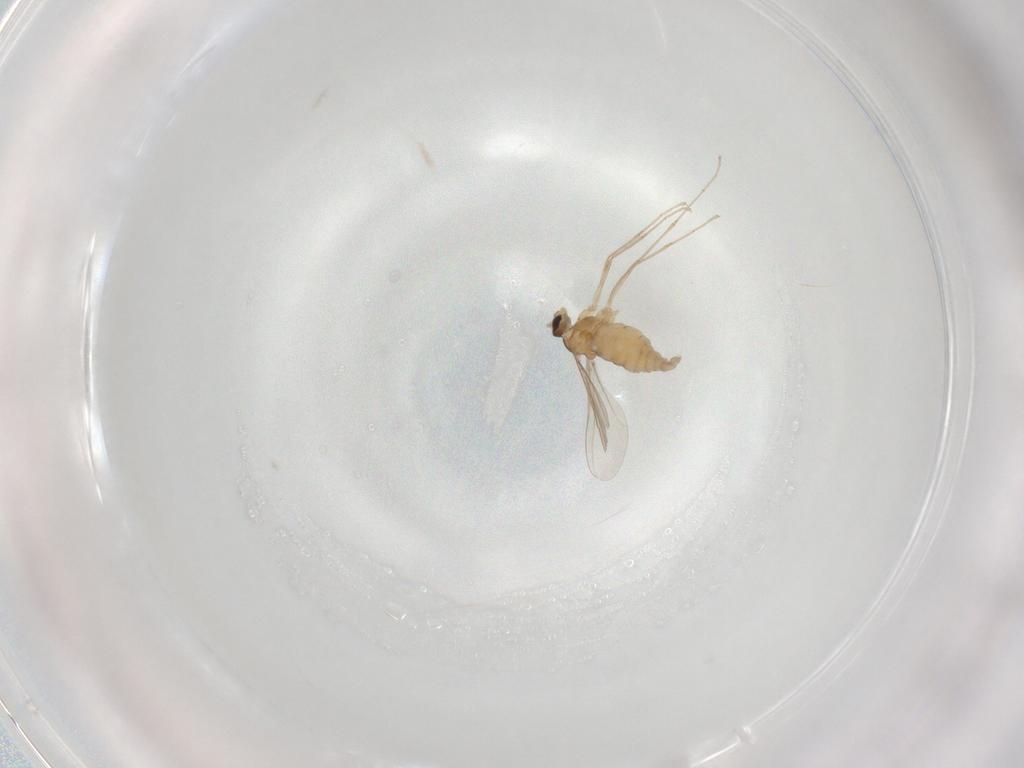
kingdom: Animalia
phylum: Arthropoda
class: Insecta
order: Diptera
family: Cecidomyiidae
